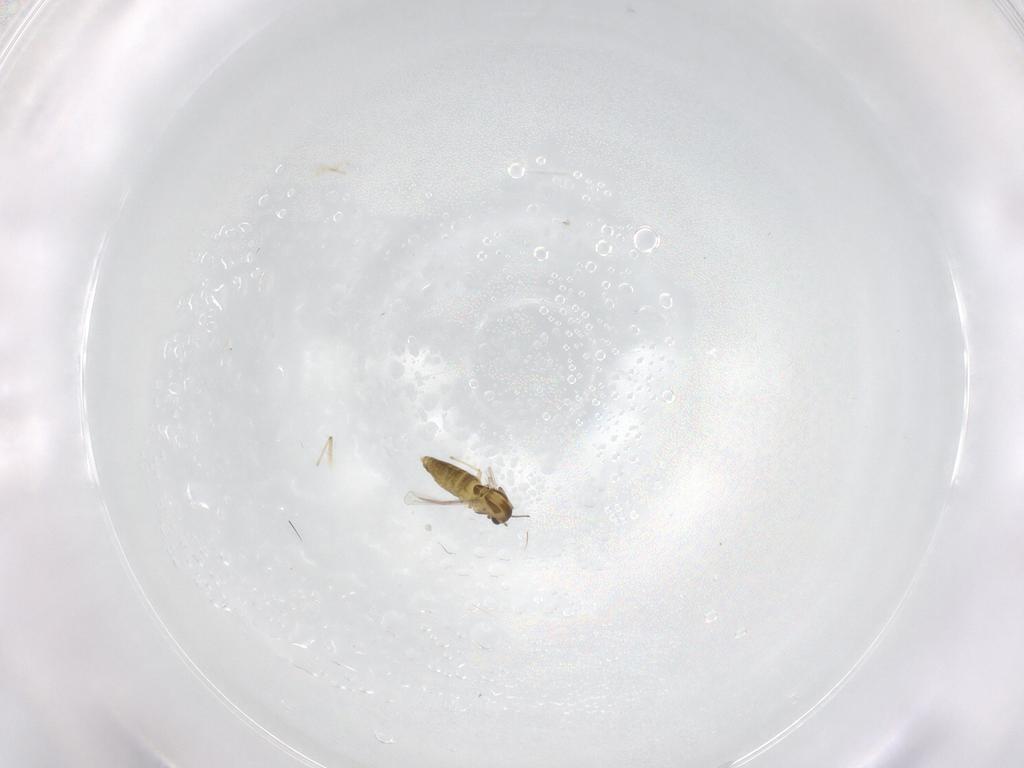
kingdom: Animalia
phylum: Arthropoda
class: Insecta
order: Diptera
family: Chironomidae
